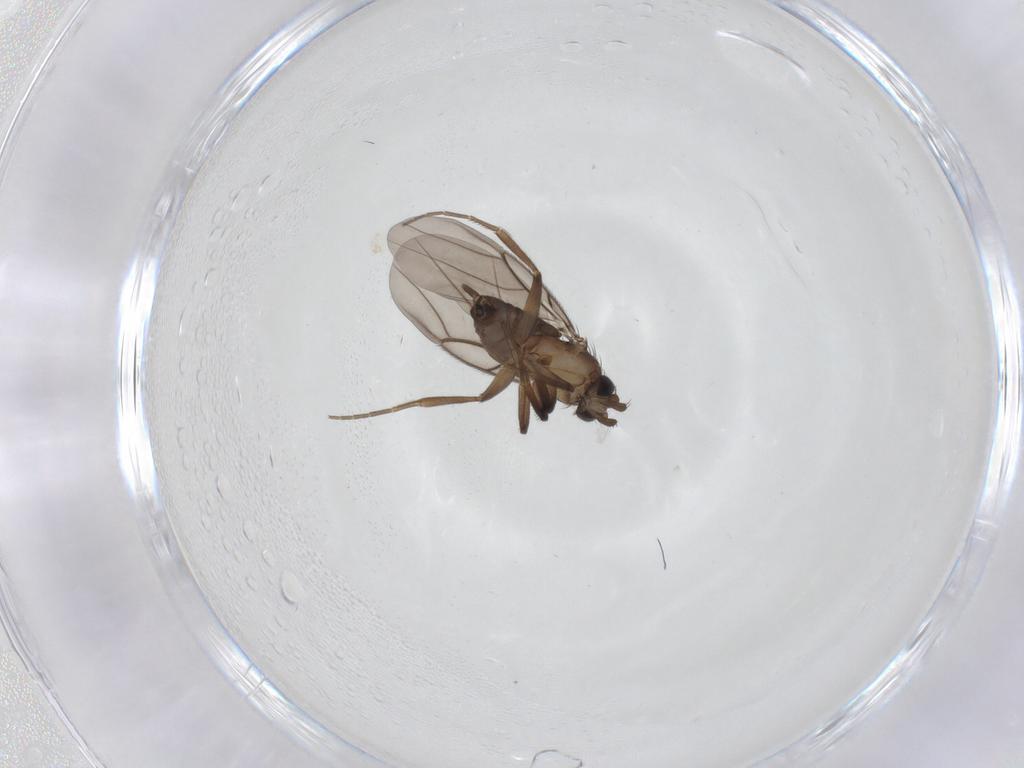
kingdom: Animalia
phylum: Arthropoda
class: Insecta
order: Diptera
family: Phoridae
